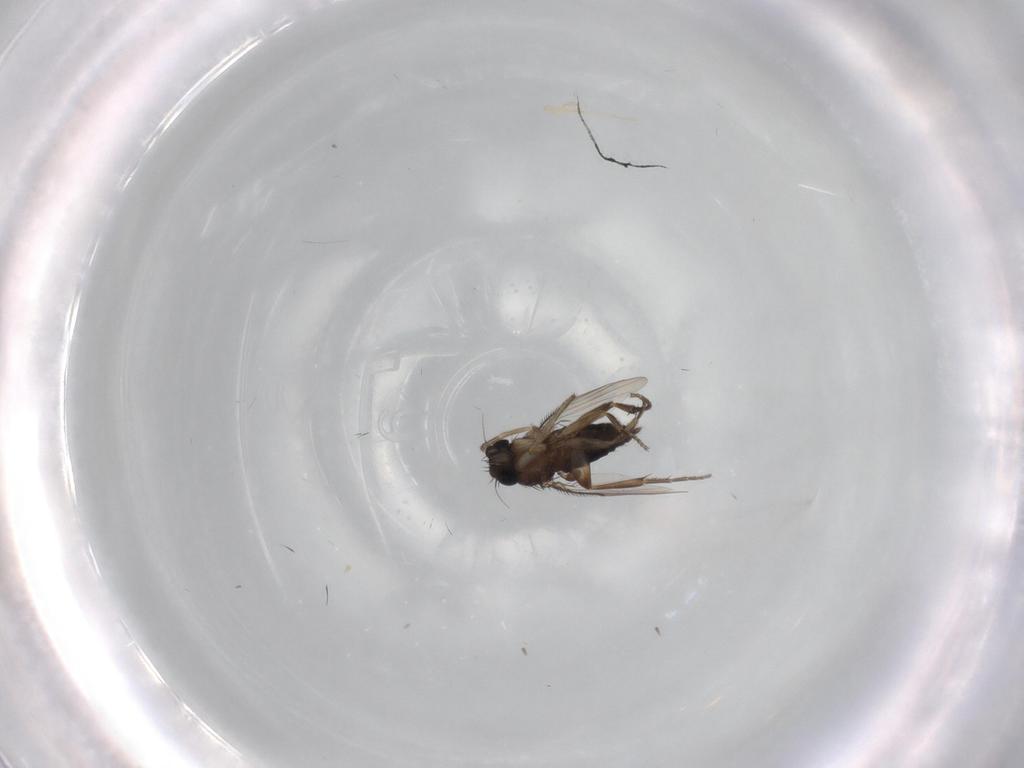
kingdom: Animalia
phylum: Arthropoda
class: Insecta
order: Diptera
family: Phoridae
